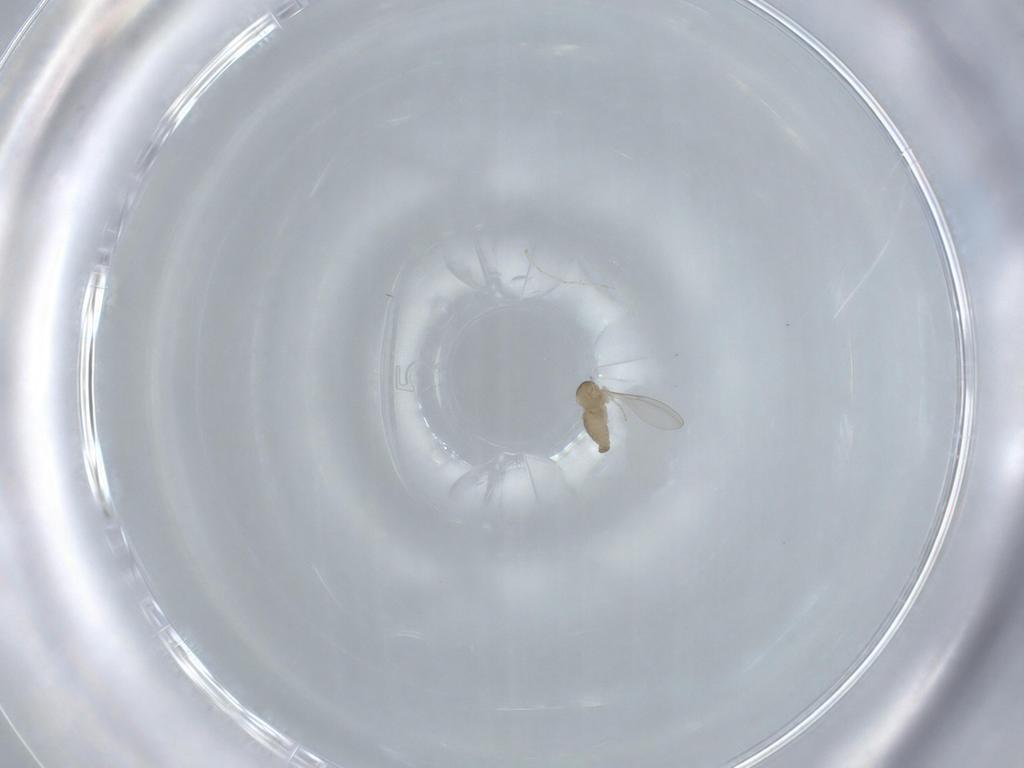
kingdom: Animalia
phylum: Arthropoda
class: Insecta
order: Diptera
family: Cecidomyiidae
